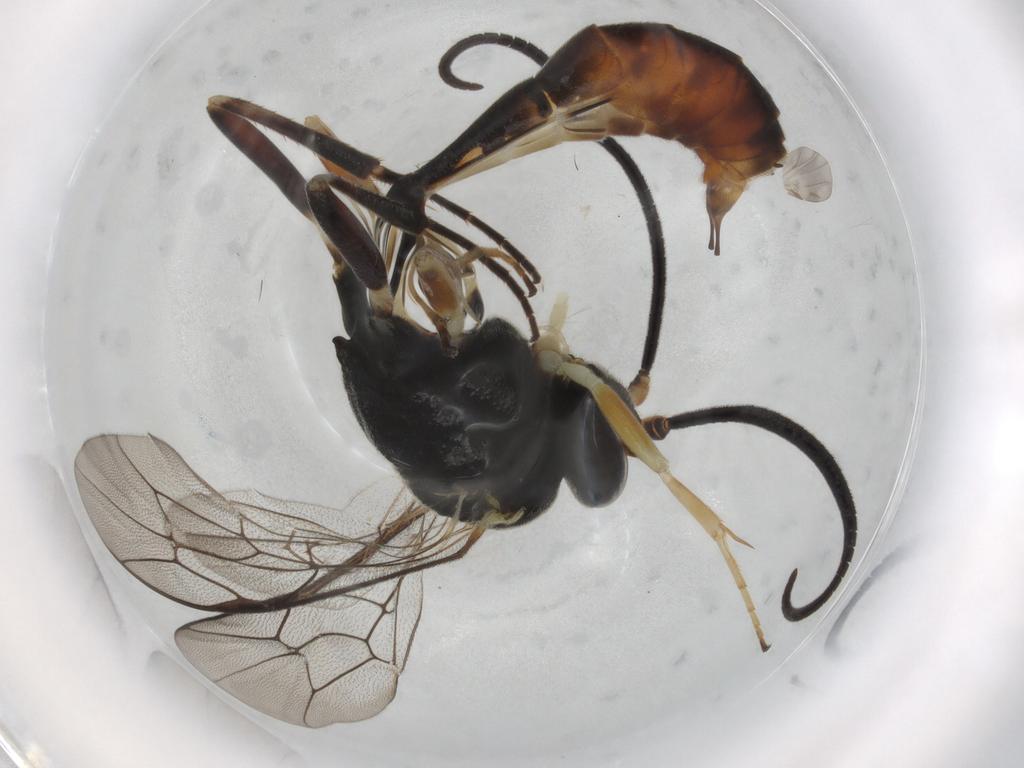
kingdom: Animalia
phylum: Arthropoda
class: Insecta
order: Hymenoptera
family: Ichneumonidae
